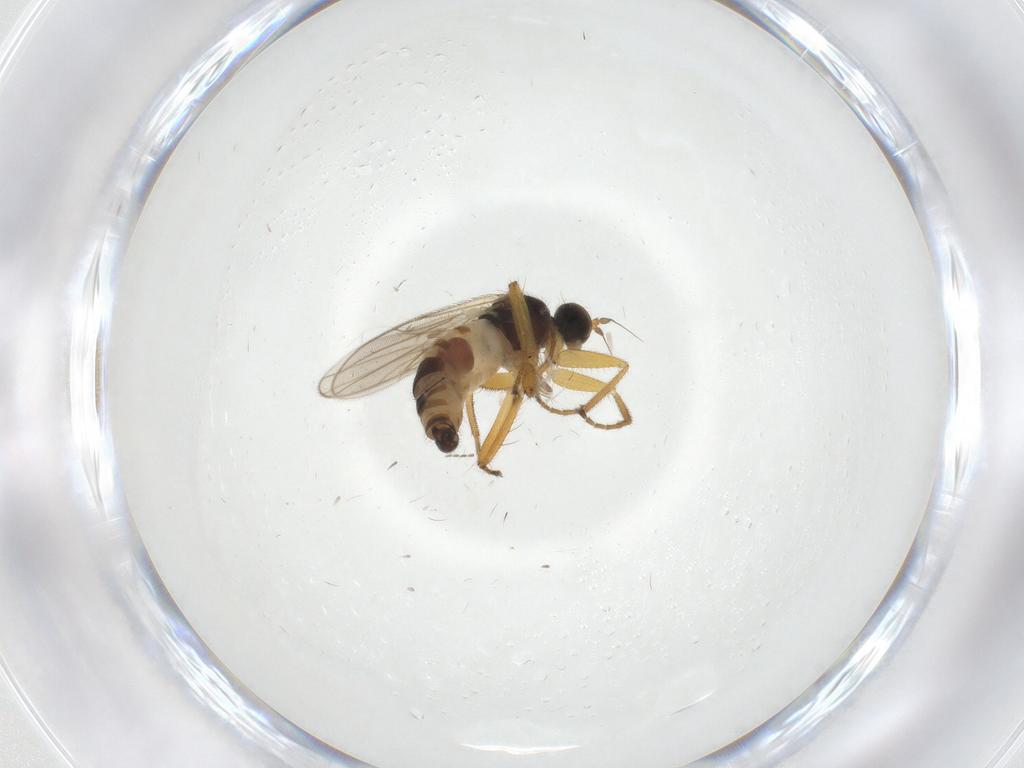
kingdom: Animalia
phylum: Arthropoda
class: Insecta
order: Diptera
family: Hybotidae
